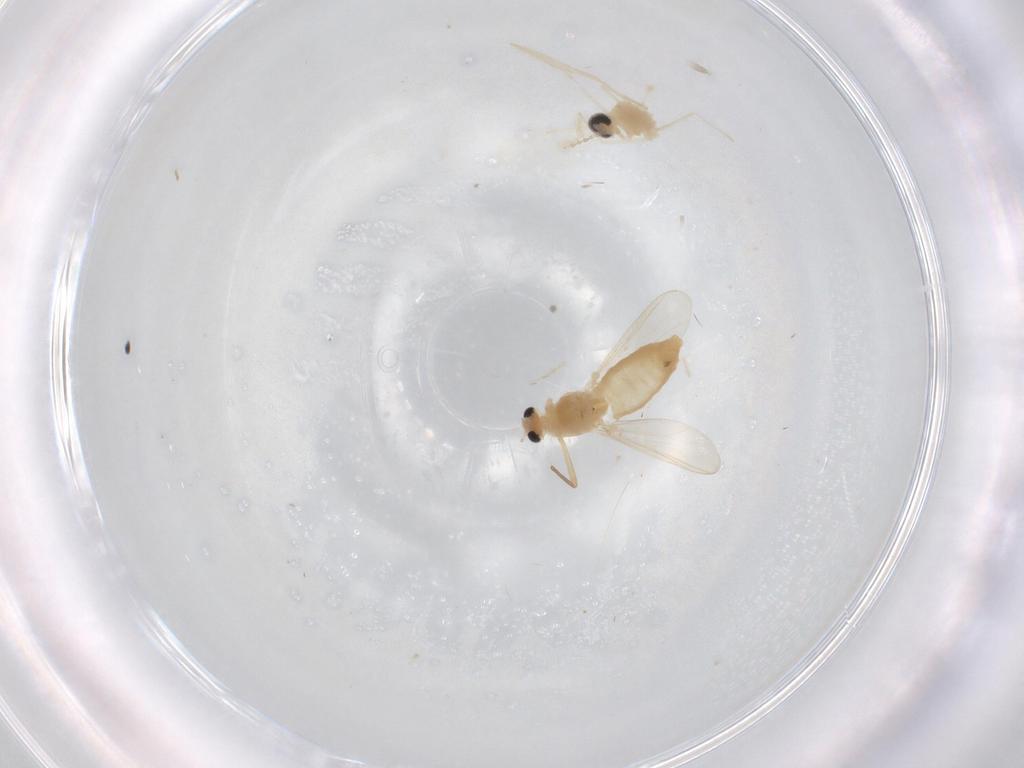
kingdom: Animalia
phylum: Arthropoda
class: Insecta
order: Diptera
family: Chironomidae
